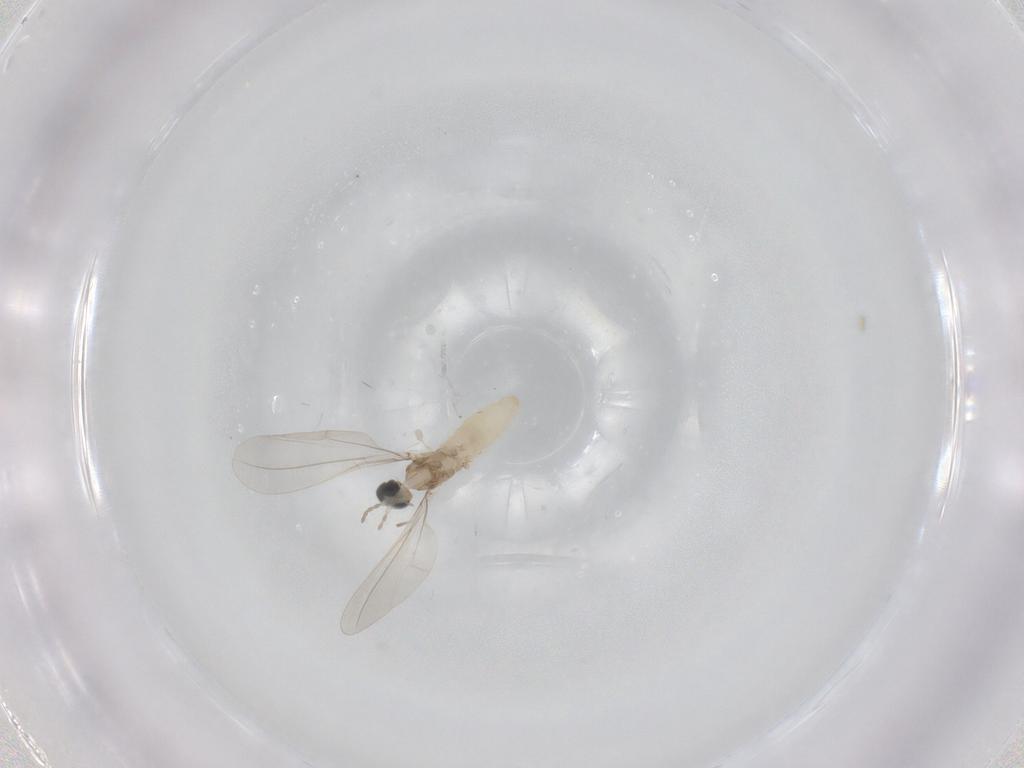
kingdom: Animalia
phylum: Arthropoda
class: Insecta
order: Diptera
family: Cecidomyiidae
